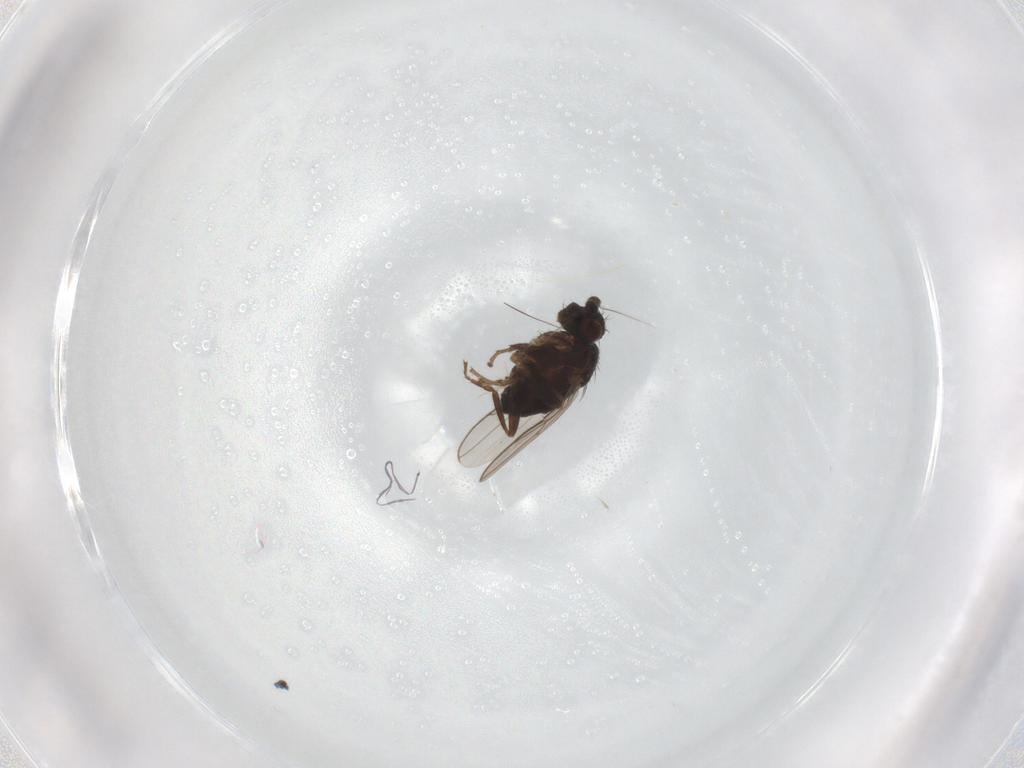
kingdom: Animalia
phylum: Arthropoda
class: Insecta
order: Diptera
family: Sphaeroceridae
